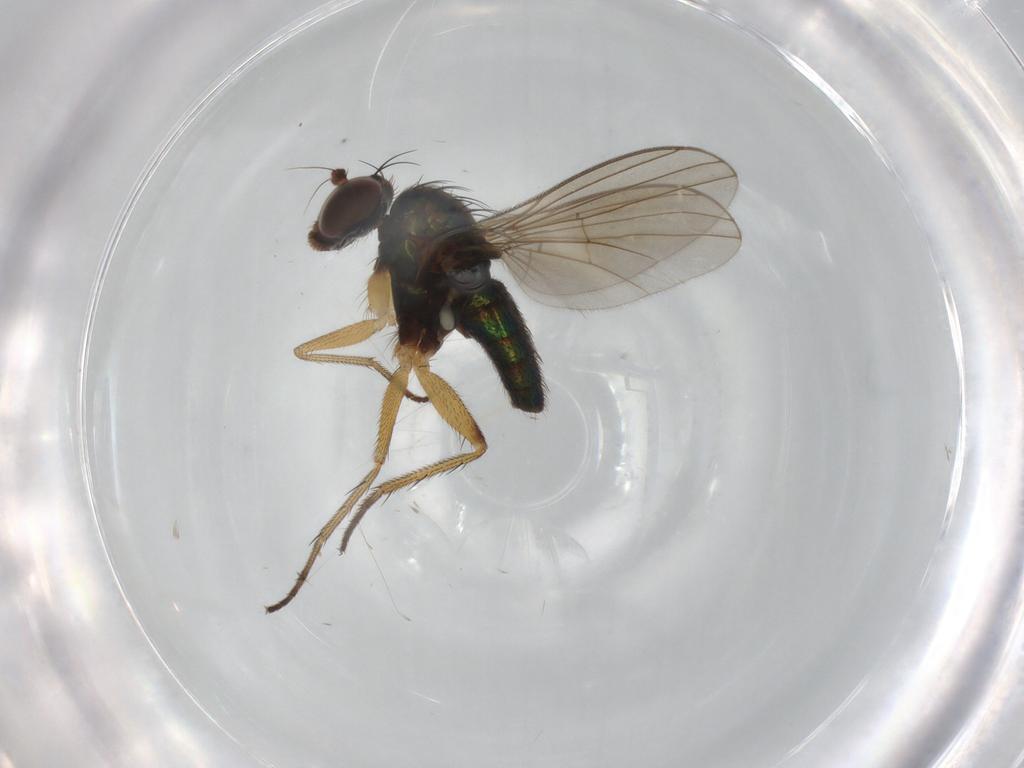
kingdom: Animalia
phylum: Arthropoda
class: Insecta
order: Diptera
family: Dolichopodidae
